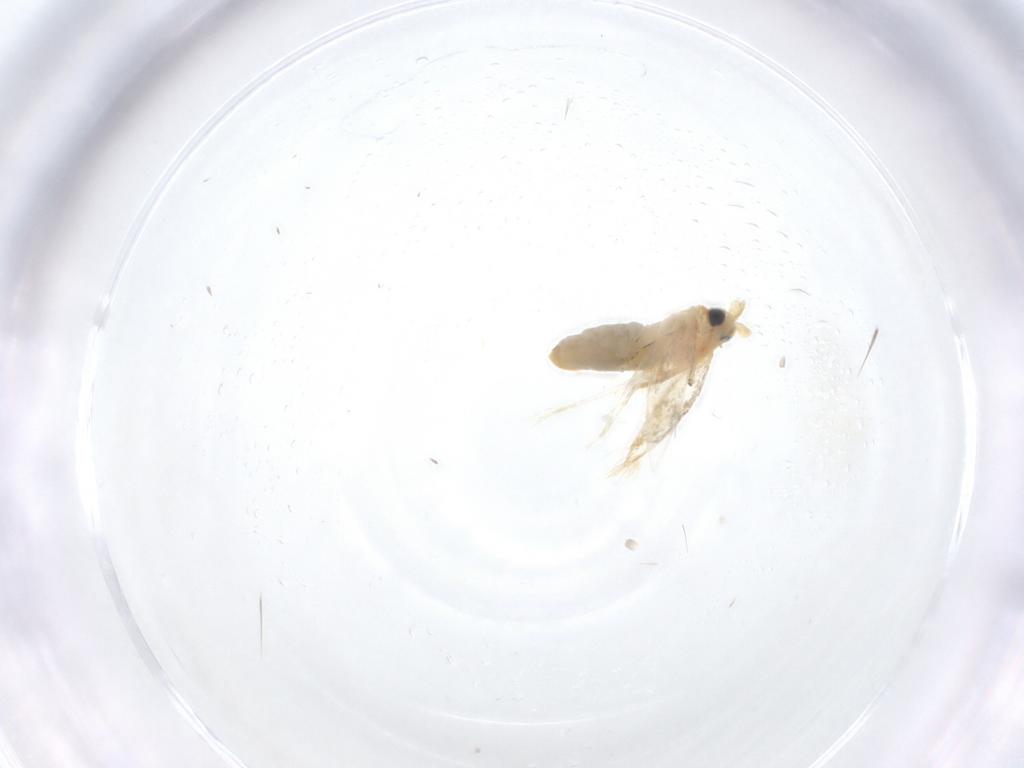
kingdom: Animalia
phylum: Arthropoda
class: Insecta
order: Lepidoptera
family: Nepticulidae
